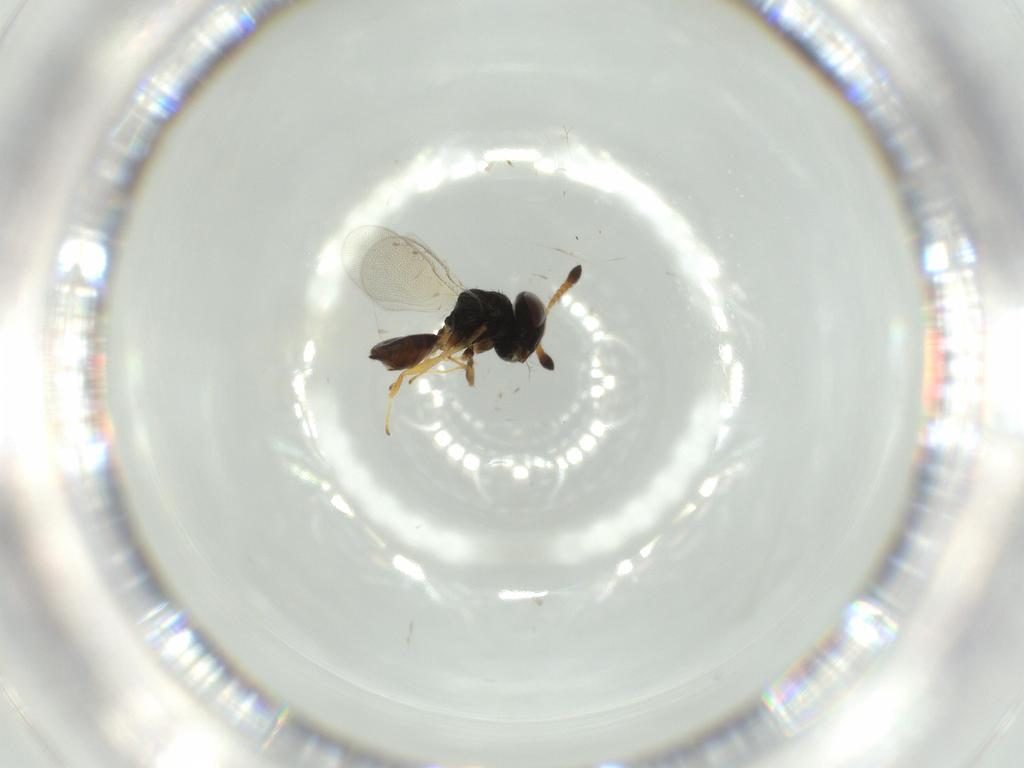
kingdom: Animalia
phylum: Arthropoda
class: Insecta
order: Hymenoptera
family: Pteromalidae
